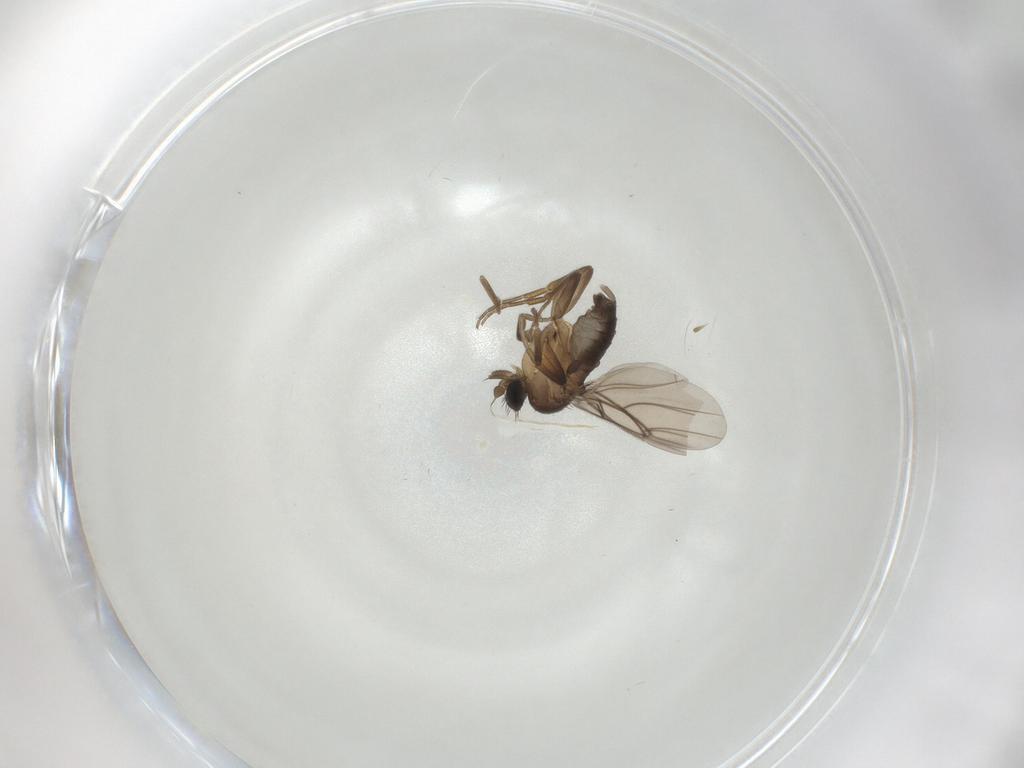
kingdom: Animalia
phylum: Arthropoda
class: Insecta
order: Diptera
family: Phoridae
